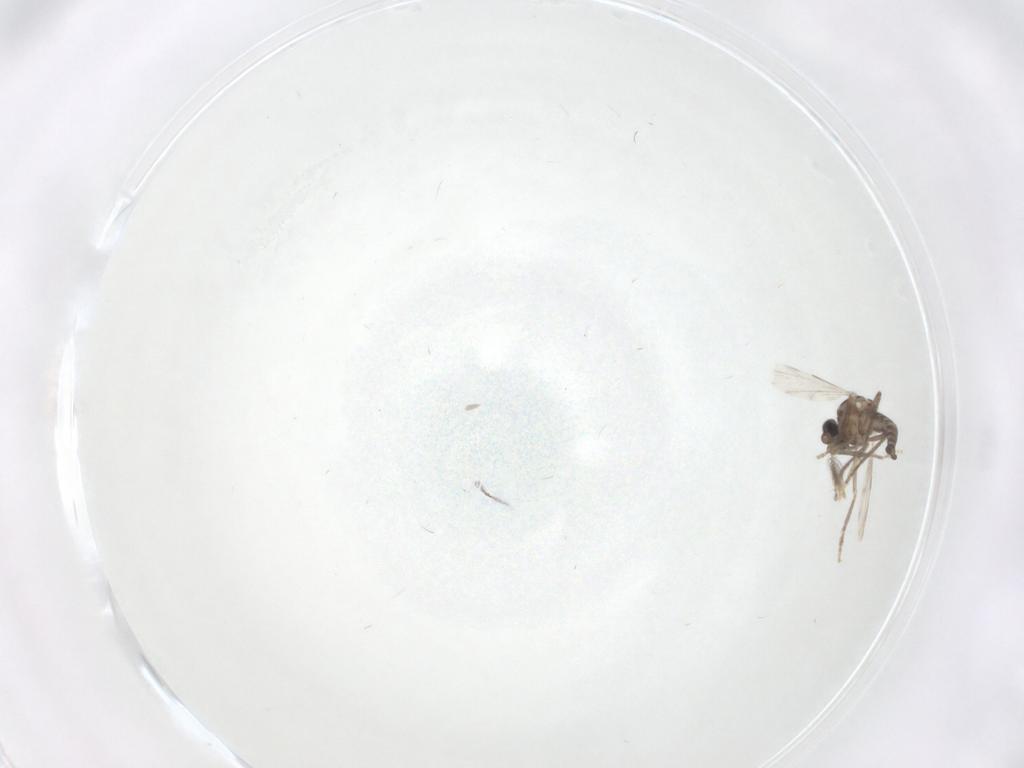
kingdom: Animalia
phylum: Arthropoda
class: Insecta
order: Diptera
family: Ceratopogonidae
